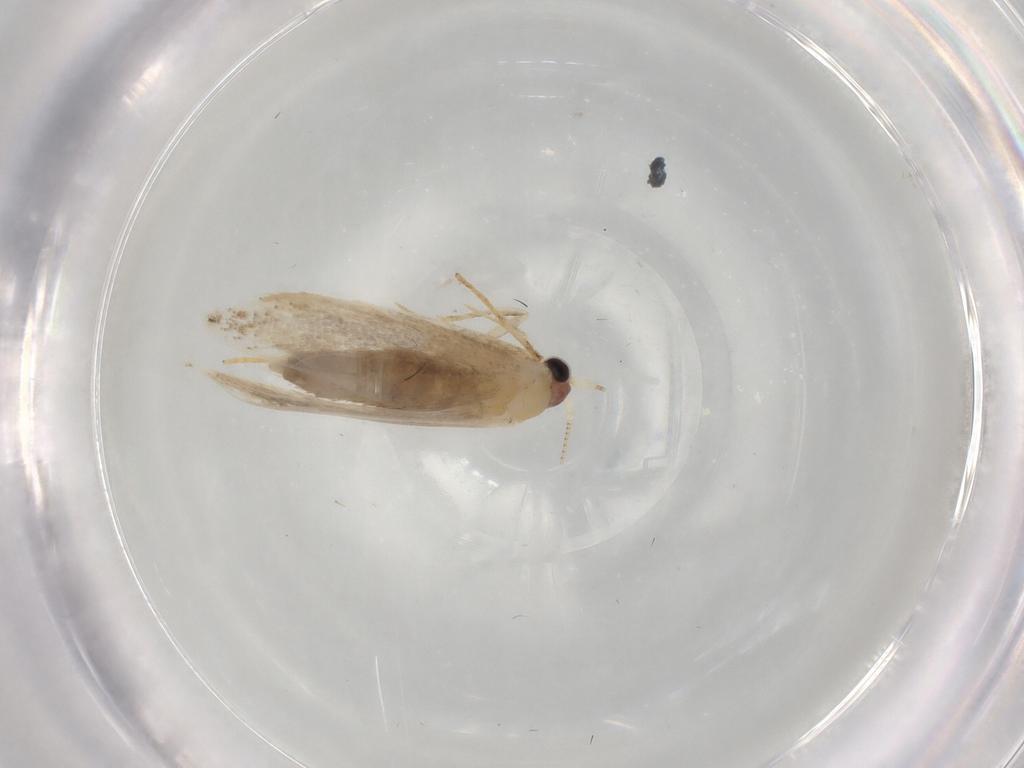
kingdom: Animalia
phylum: Arthropoda
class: Insecta
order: Lepidoptera
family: Nepticulidae
